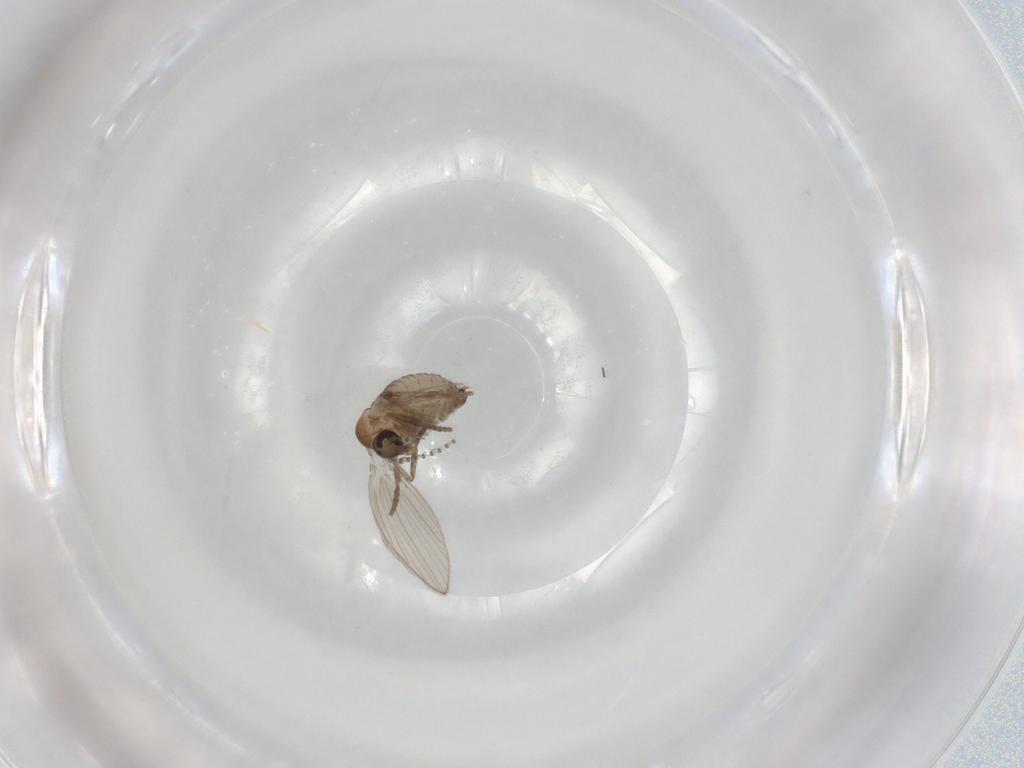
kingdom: Animalia
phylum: Arthropoda
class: Insecta
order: Diptera
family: Psychodidae
